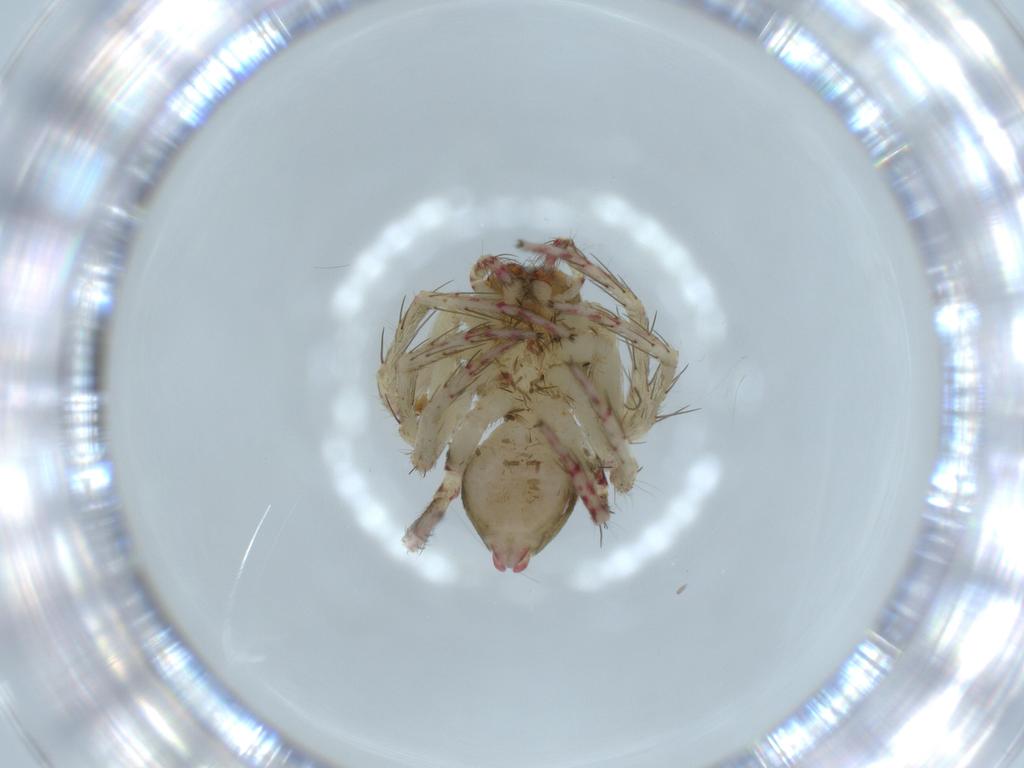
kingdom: Animalia
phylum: Arthropoda
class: Arachnida
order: Araneae
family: Oxyopidae
